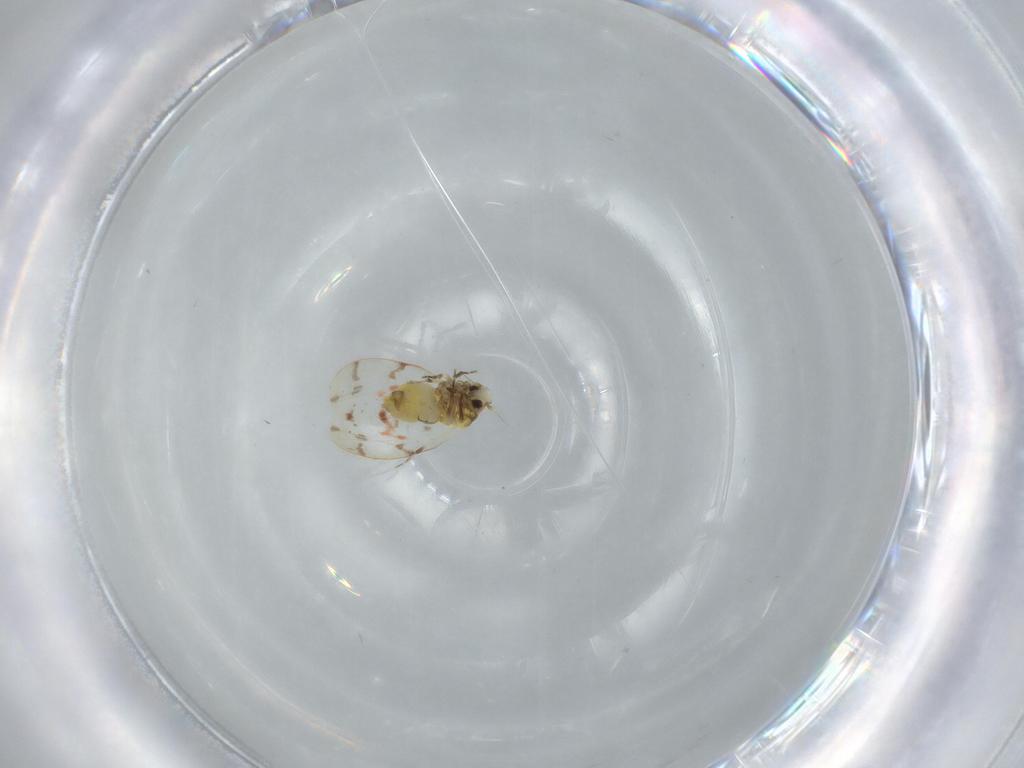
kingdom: Animalia
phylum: Arthropoda
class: Insecta
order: Hemiptera
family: Aleyrodidae
